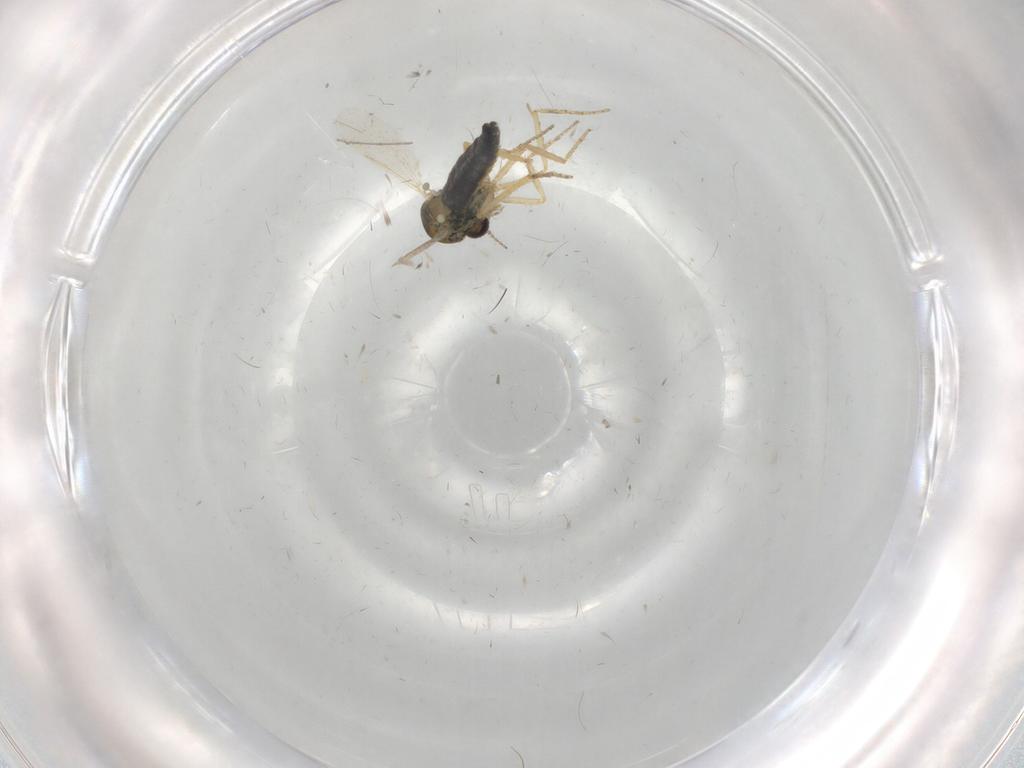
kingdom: Animalia
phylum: Arthropoda
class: Insecta
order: Diptera
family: Ceratopogonidae
